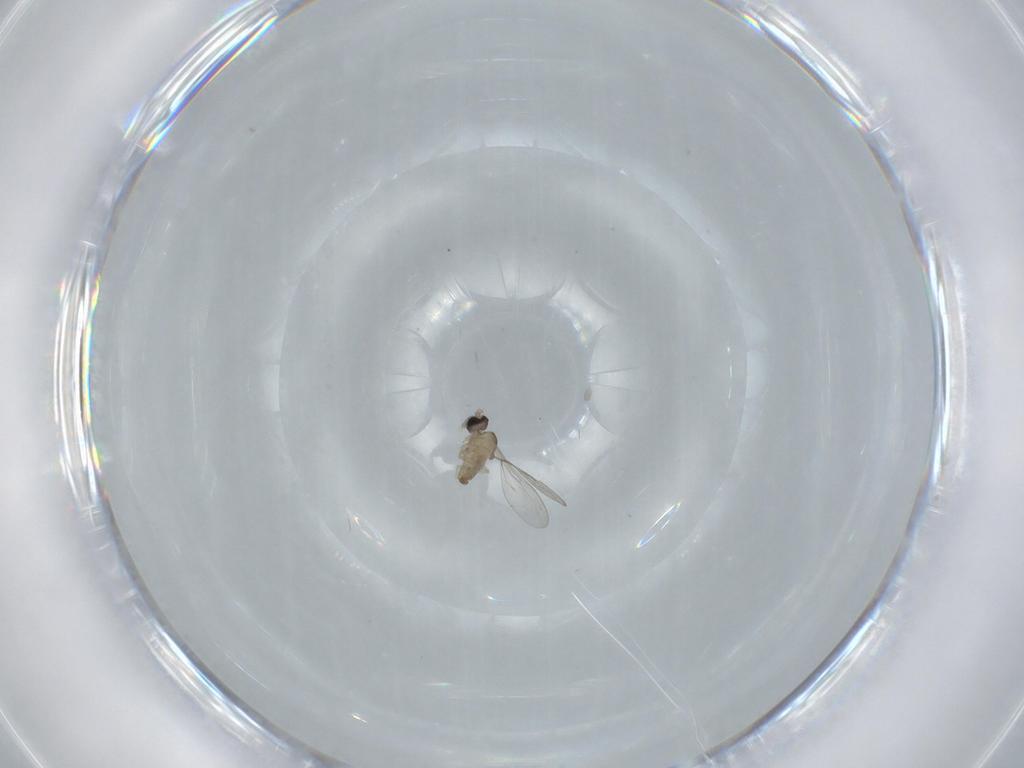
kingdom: Animalia
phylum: Arthropoda
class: Insecta
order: Diptera
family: Cecidomyiidae
